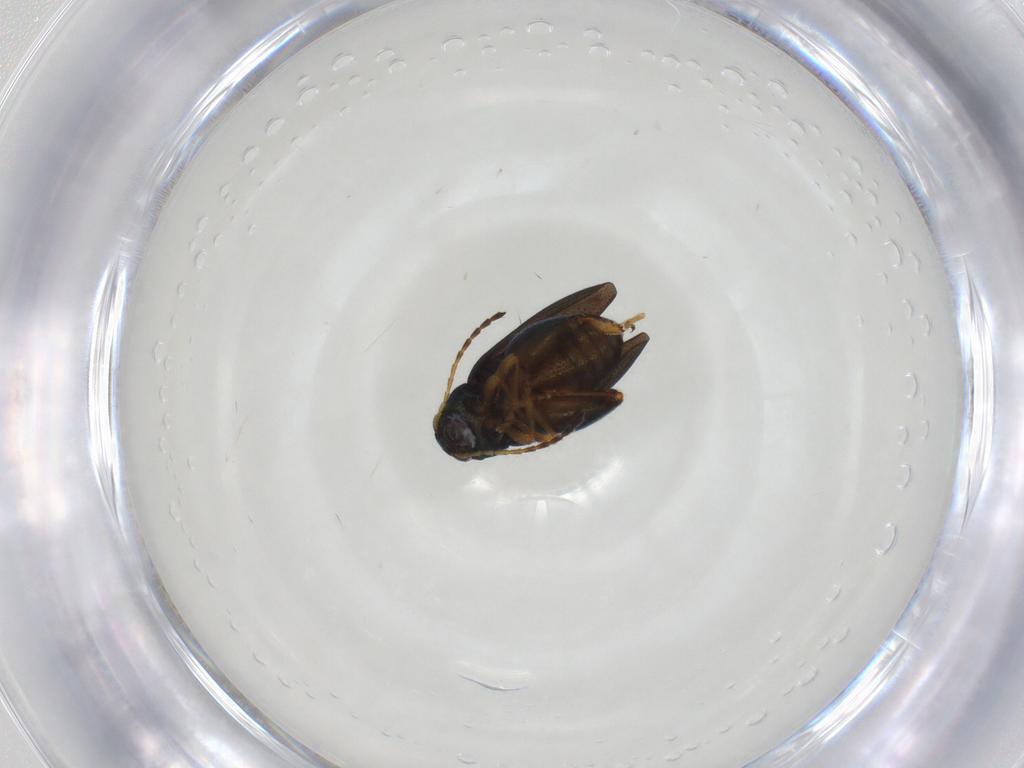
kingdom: Animalia
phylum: Arthropoda
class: Insecta
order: Coleoptera
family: Chrysomelidae
